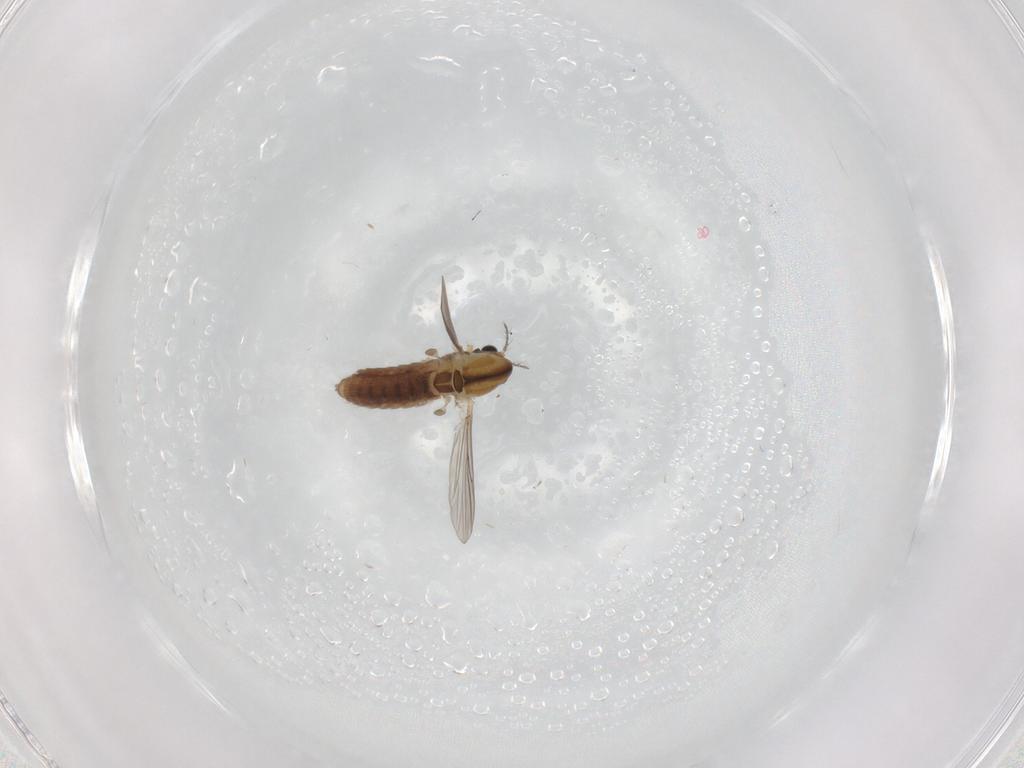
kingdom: Animalia
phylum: Arthropoda
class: Insecta
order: Diptera
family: Chironomidae
